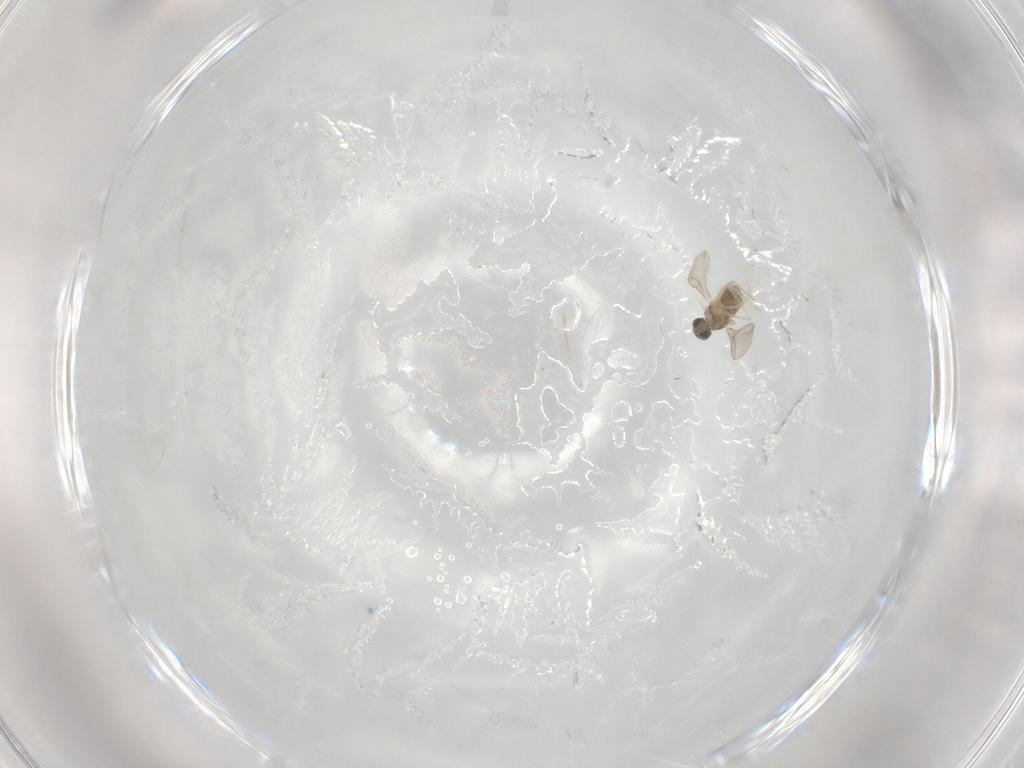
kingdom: Animalia
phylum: Arthropoda
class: Insecta
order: Diptera
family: Cecidomyiidae
